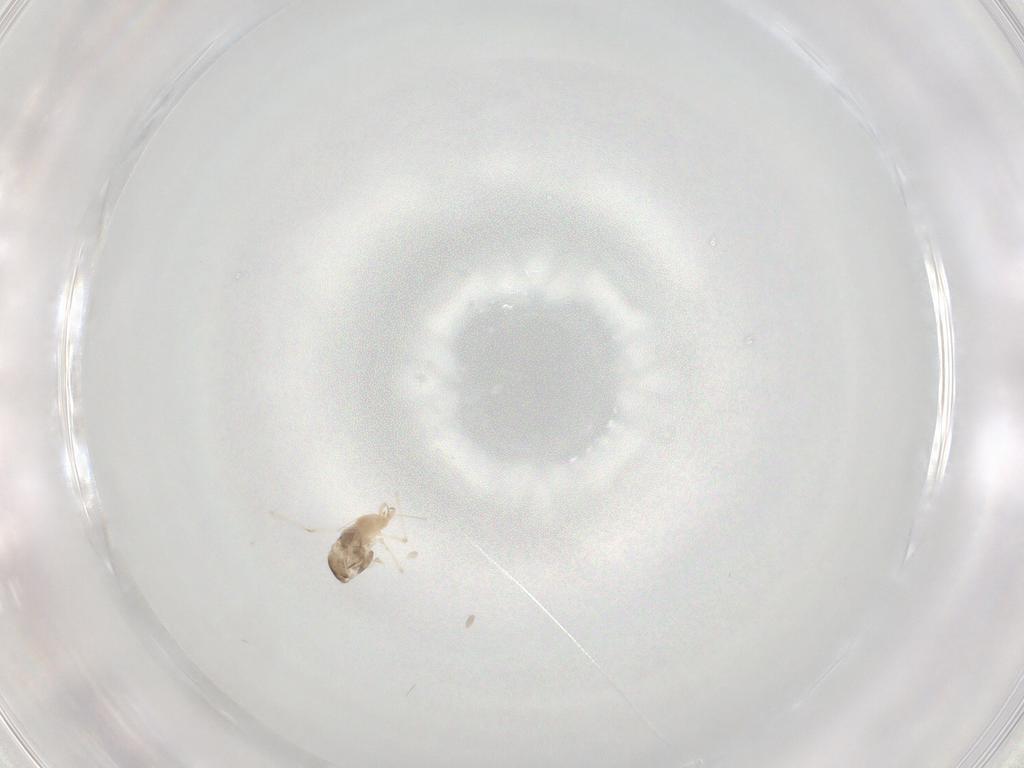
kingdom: Animalia
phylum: Arthropoda
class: Insecta
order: Diptera
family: Sarcophagidae
